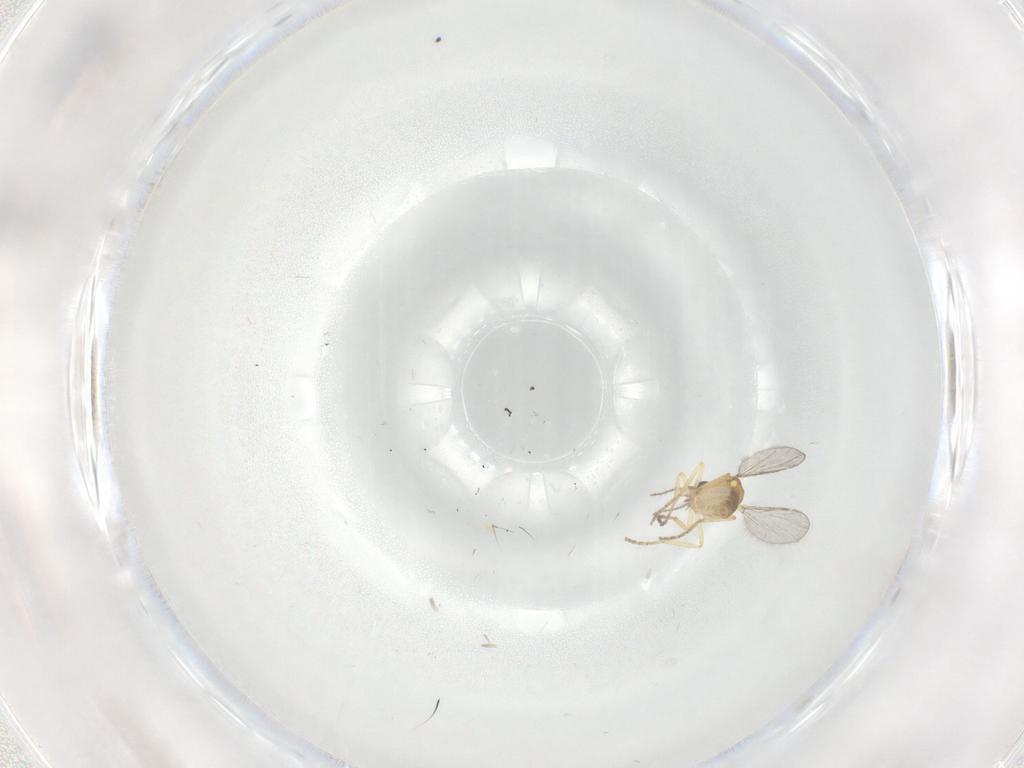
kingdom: Animalia
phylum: Arthropoda
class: Insecta
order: Diptera
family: Ceratopogonidae
